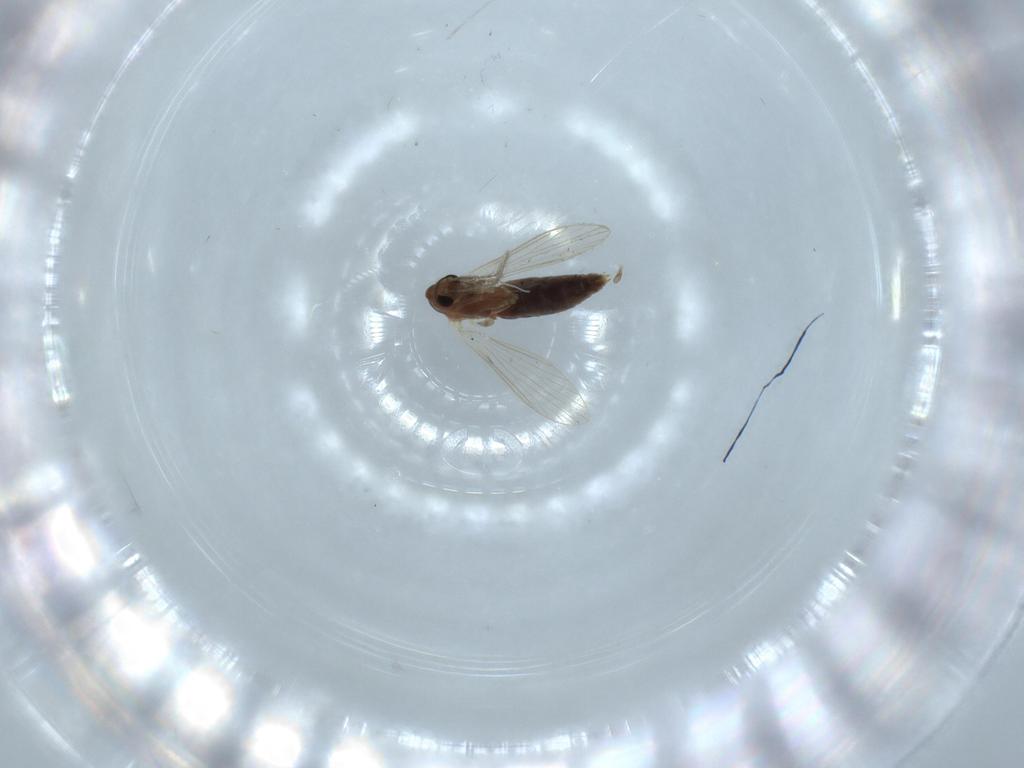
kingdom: Animalia
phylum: Arthropoda
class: Insecta
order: Diptera
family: Psychodidae
